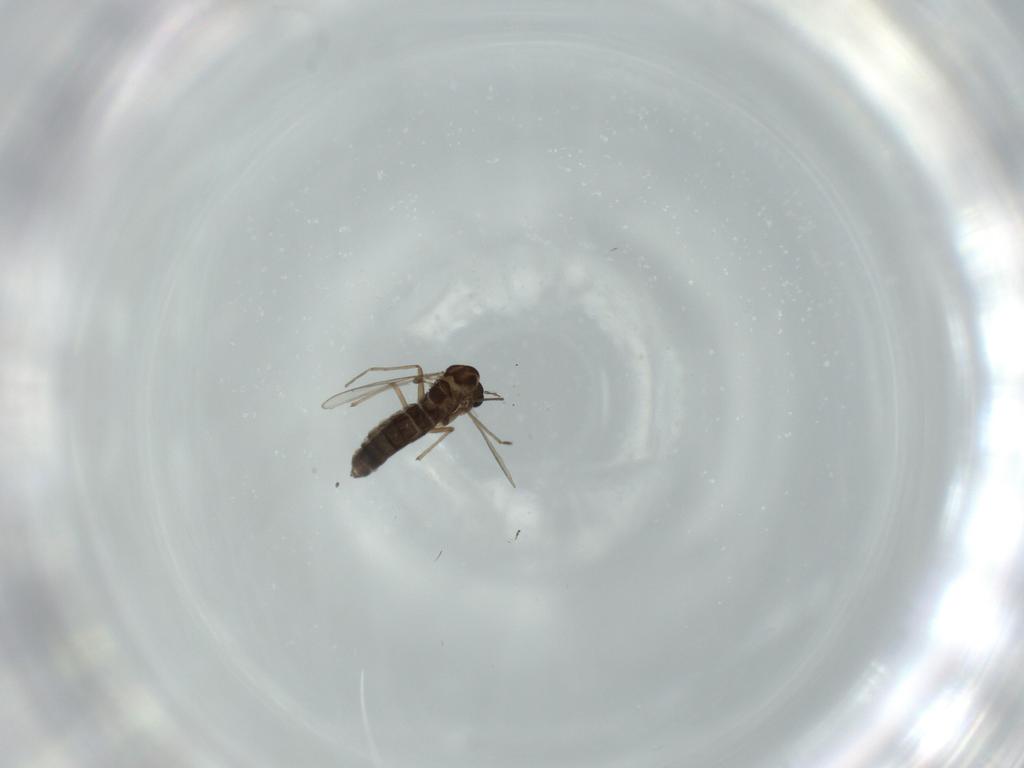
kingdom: Animalia
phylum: Arthropoda
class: Insecta
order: Diptera
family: Chironomidae
